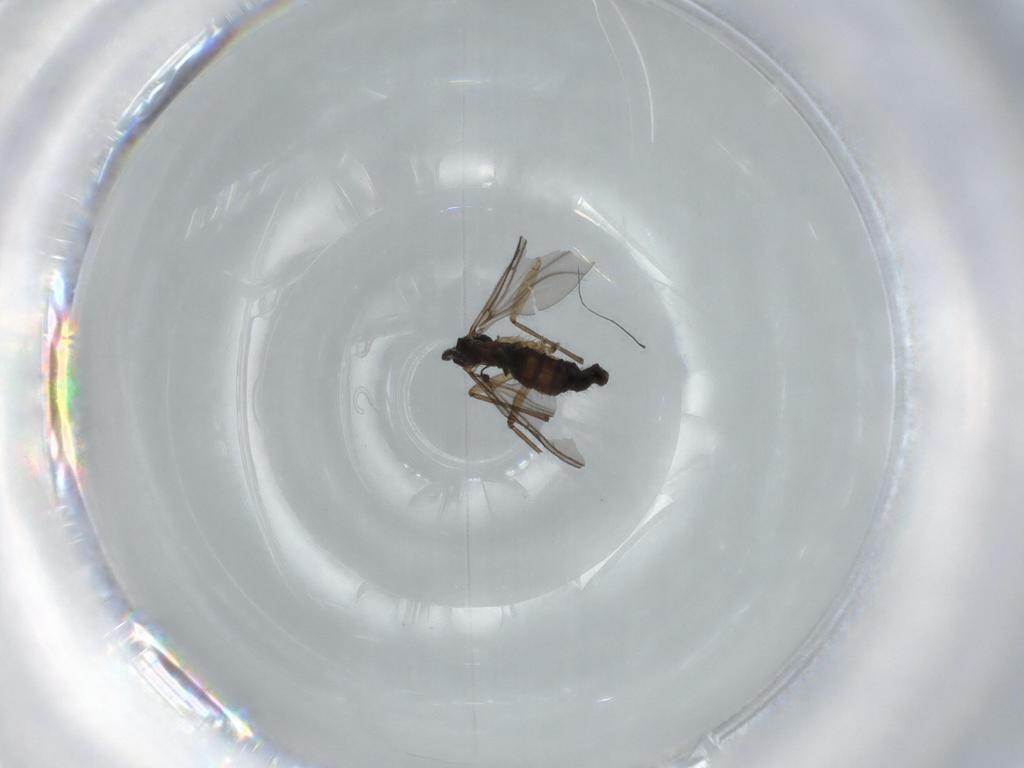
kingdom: Animalia
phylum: Arthropoda
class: Insecta
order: Diptera
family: Sciaridae
